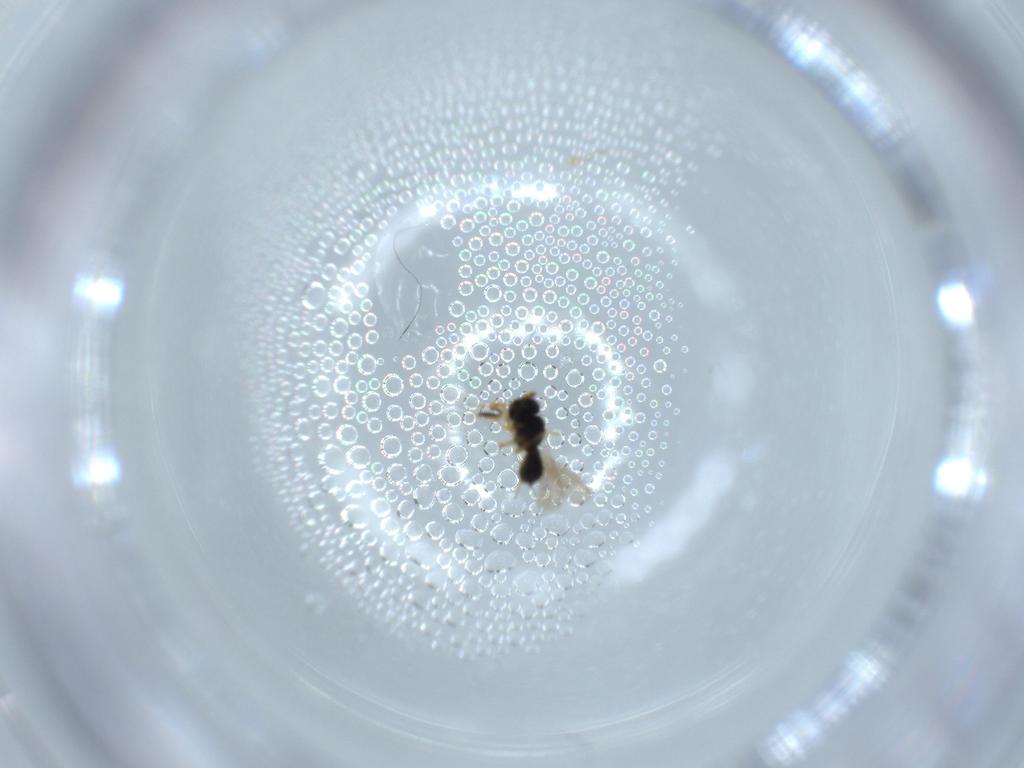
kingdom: Animalia
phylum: Arthropoda
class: Insecta
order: Hymenoptera
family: Scelionidae
